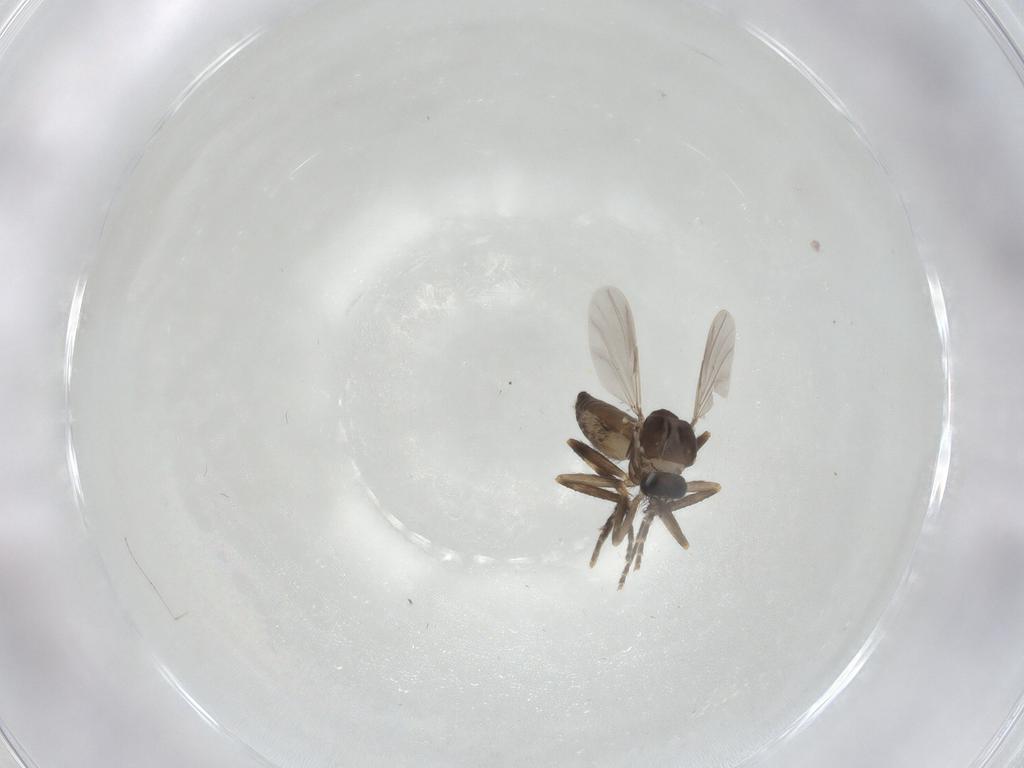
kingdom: Animalia
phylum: Arthropoda
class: Insecta
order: Diptera
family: Ceratopogonidae
